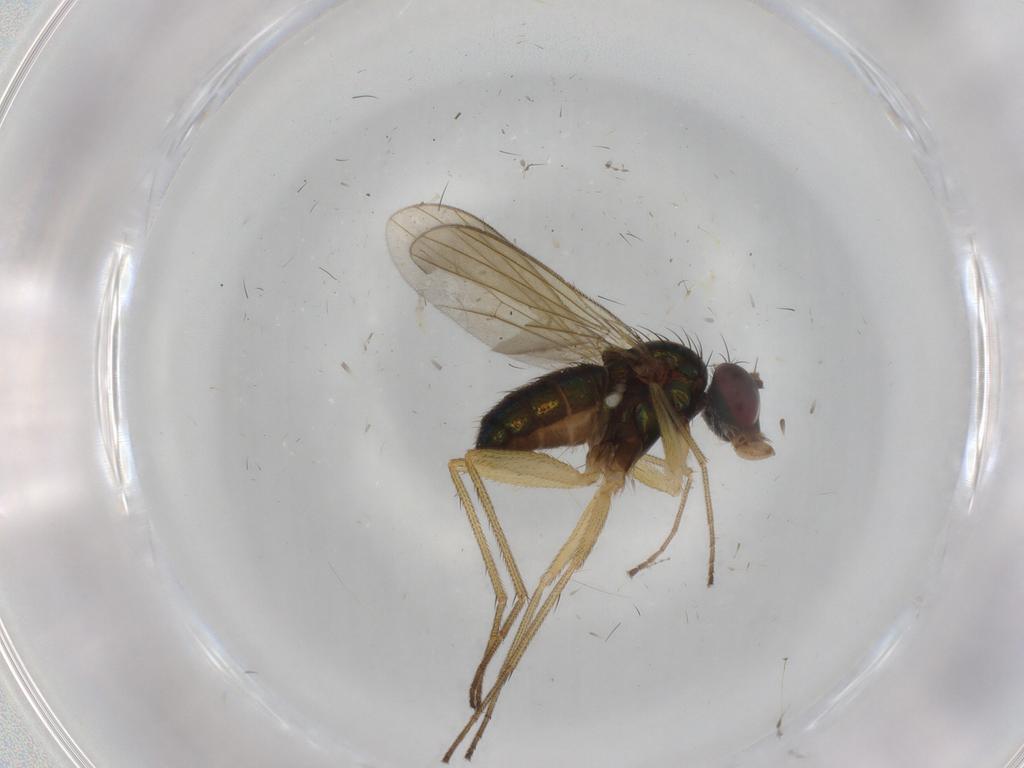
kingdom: Animalia
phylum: Arthropoda
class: Insecta
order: Diptera
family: Dolichopodidae
